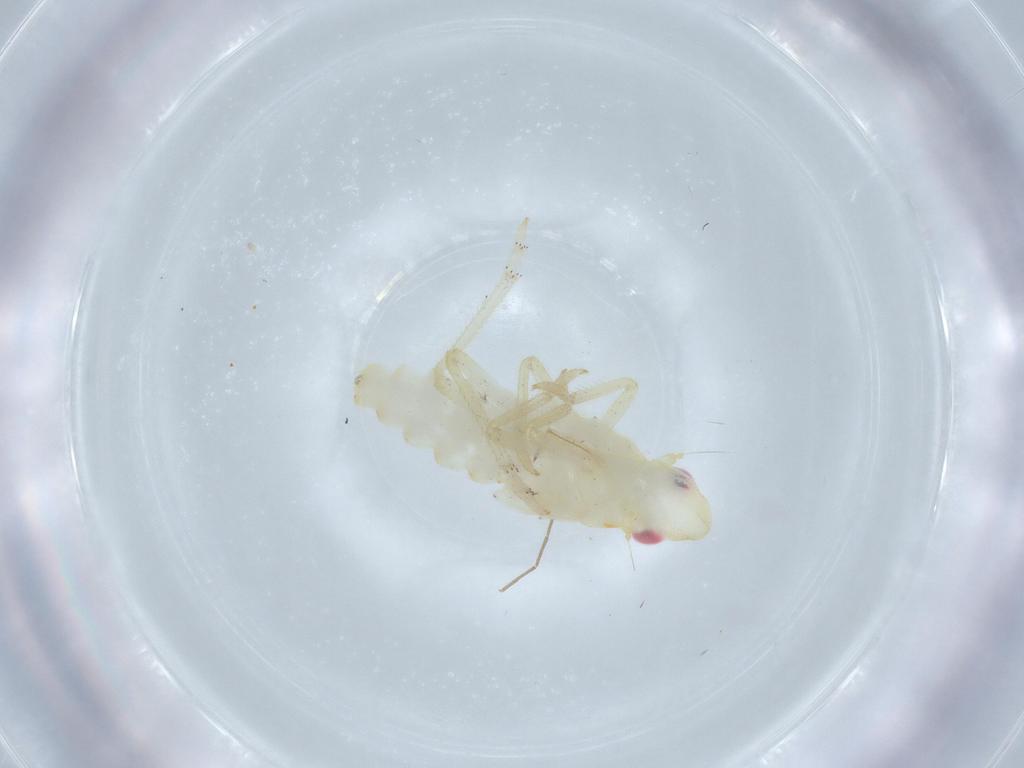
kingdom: Animalia
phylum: Arthropoda
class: Insecta
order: Hemiptera
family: Tropiduchidae
